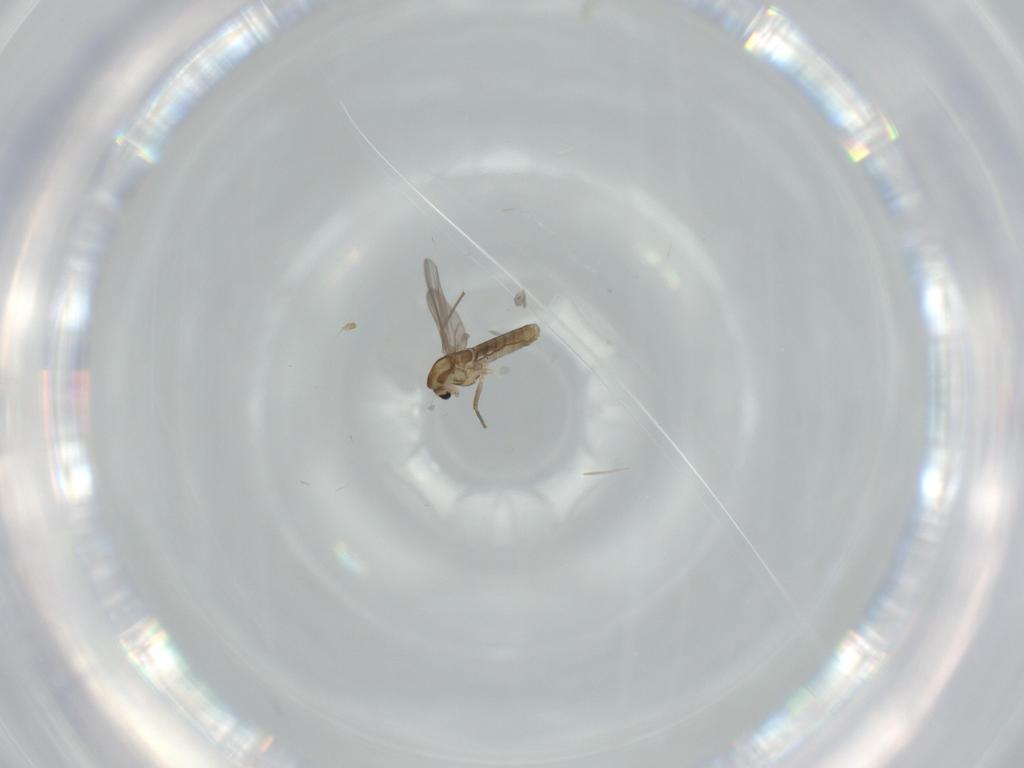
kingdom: Animalia
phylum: Arthropoda
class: Insecta
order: Diptera
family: Chironomidae
